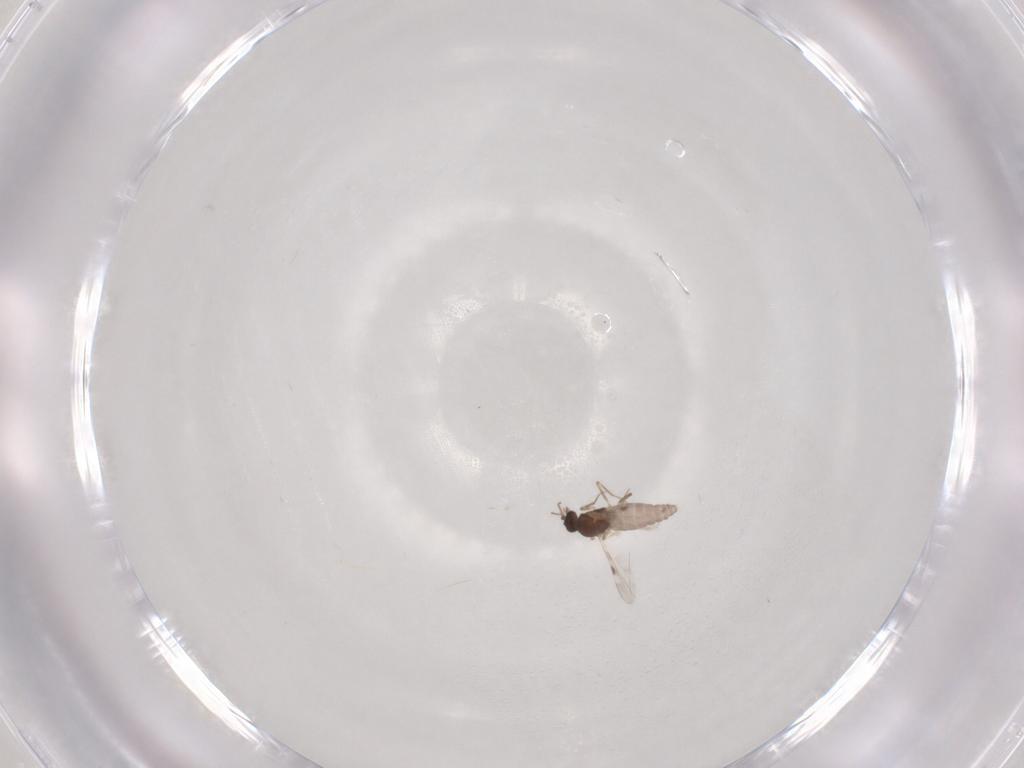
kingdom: Animalia
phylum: Arthropoda
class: Insecta
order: Diptera
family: Ceratopogonidae
